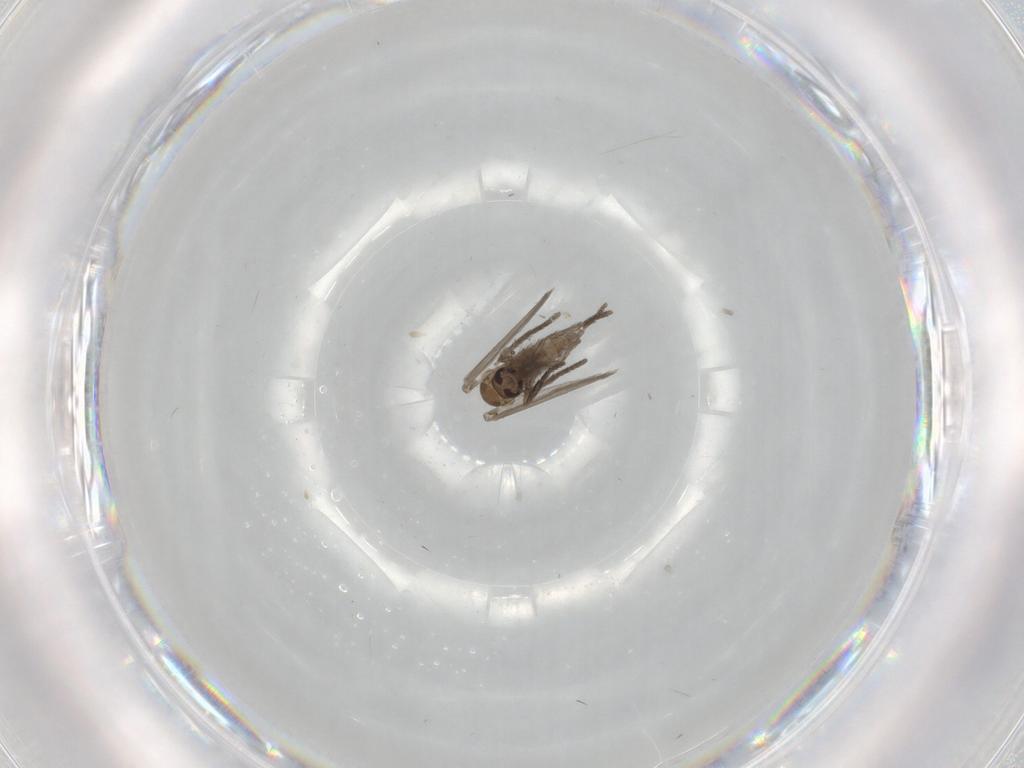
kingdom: Animalia
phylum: Arthropoda
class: Insecta
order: Diptera
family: Psychodidae
